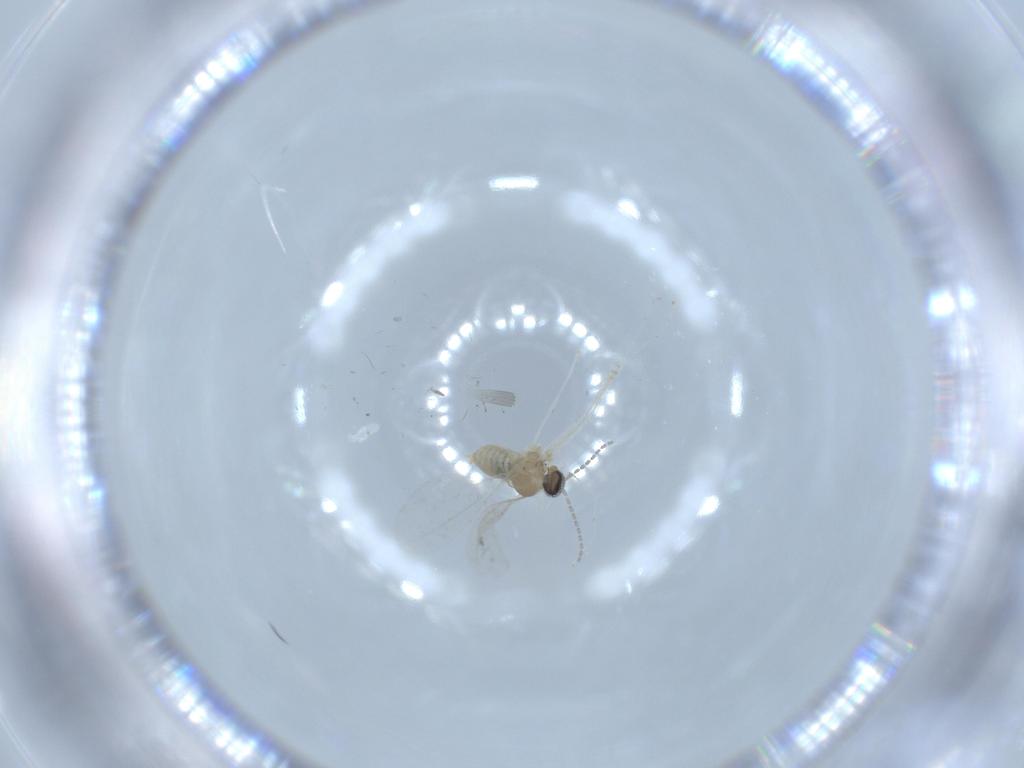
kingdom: Animalia
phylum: Arthropoda
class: Insecta
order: Diptera
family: Cecidomyiidae
